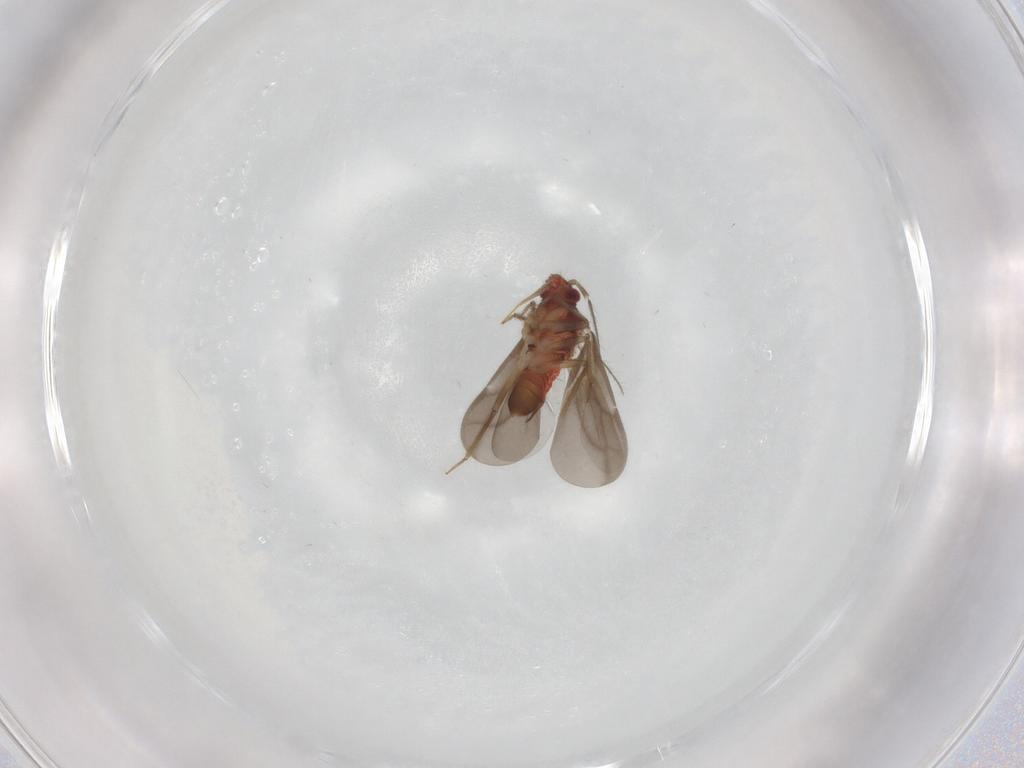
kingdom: Animalia
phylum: Arthropoda
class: Insecta
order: Hemiptera
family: Ceratocombidae
